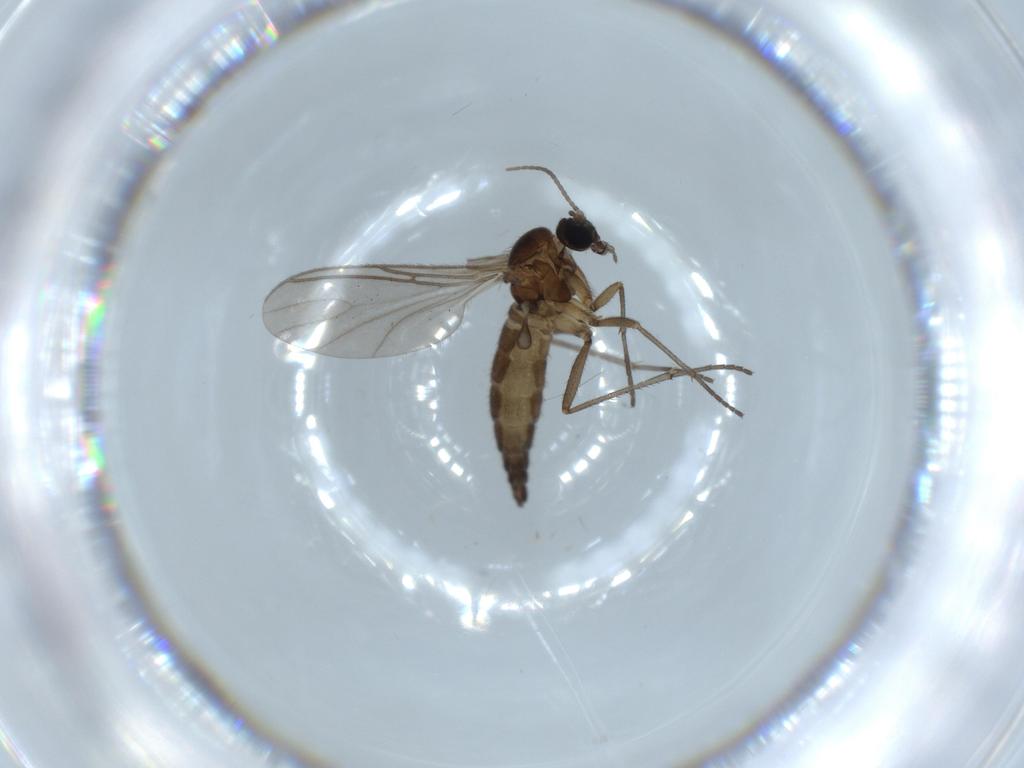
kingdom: Animalia
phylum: Arthropoda
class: Insecta
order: Diptera
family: Sciaridae
